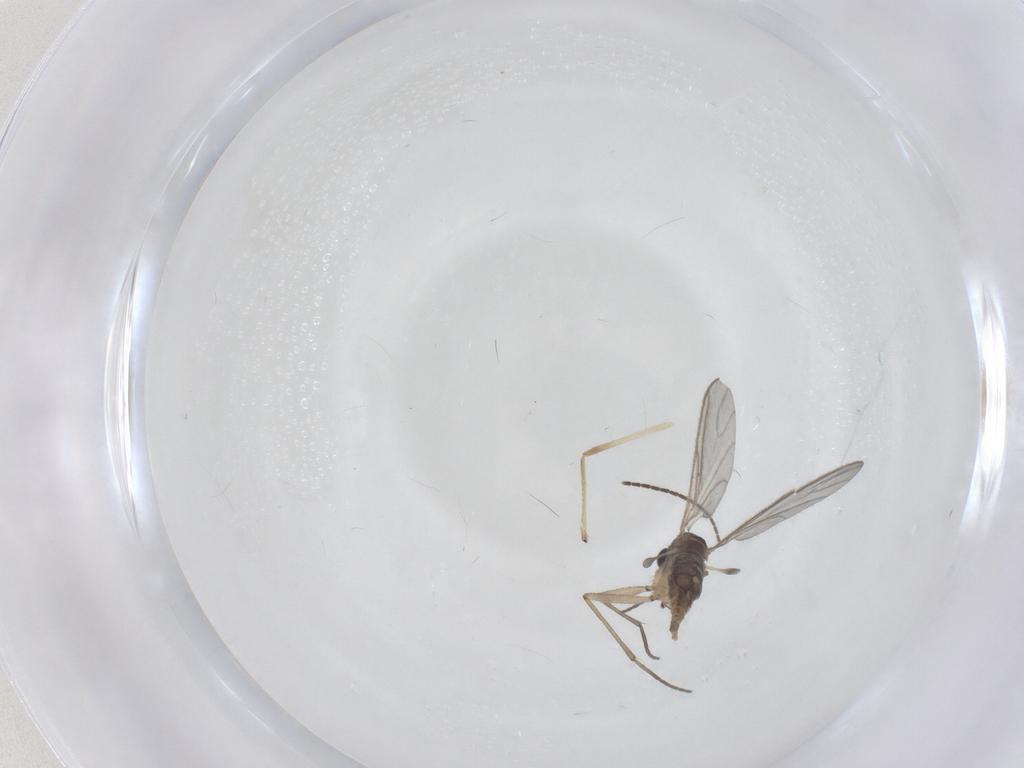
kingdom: Animalia
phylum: Arthropoda
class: Insecta
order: Diptera
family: Sciaridae
